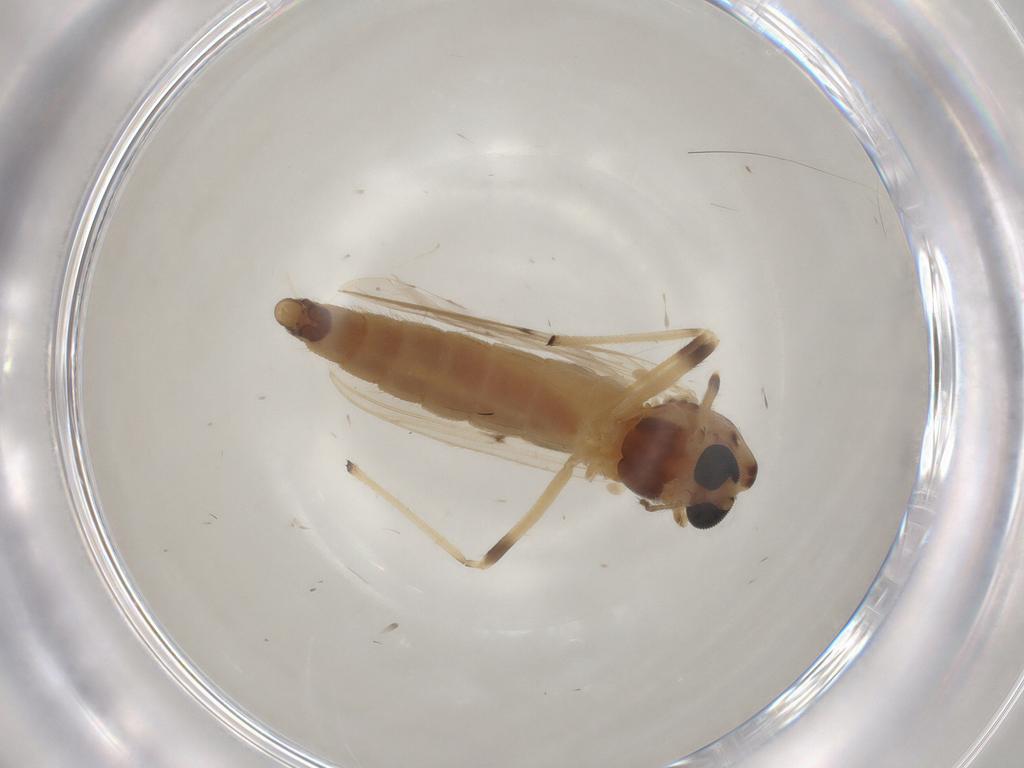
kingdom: Animalia
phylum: Arthropoda
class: Insecta
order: Diptera
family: Chironomidae
